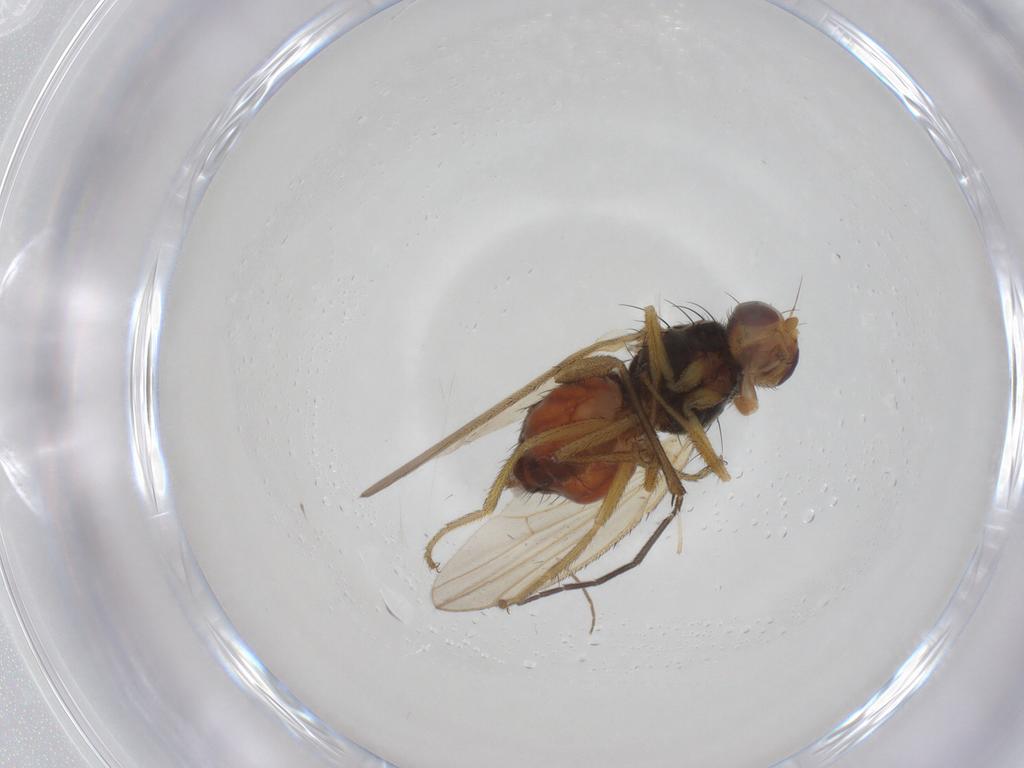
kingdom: Animalia
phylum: Arthropoda
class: Insecta
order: Diptera
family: Heleomyzidae
